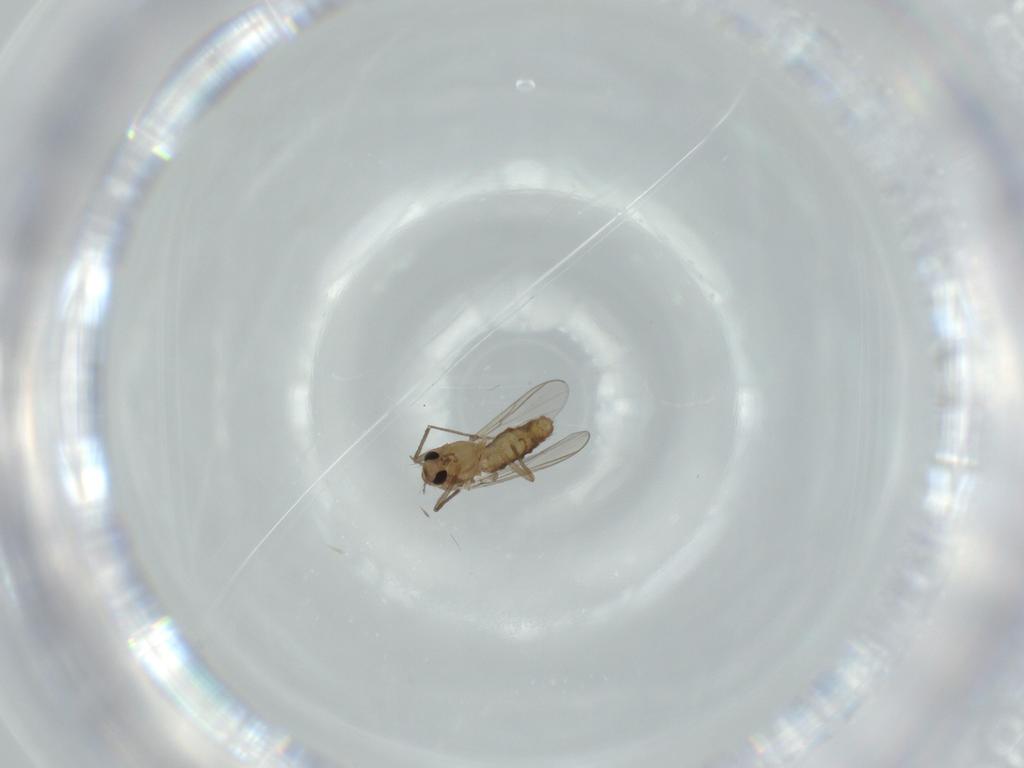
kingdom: Animalia
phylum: Arthropoda
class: Insecta
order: Diptera
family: Chironomidae
